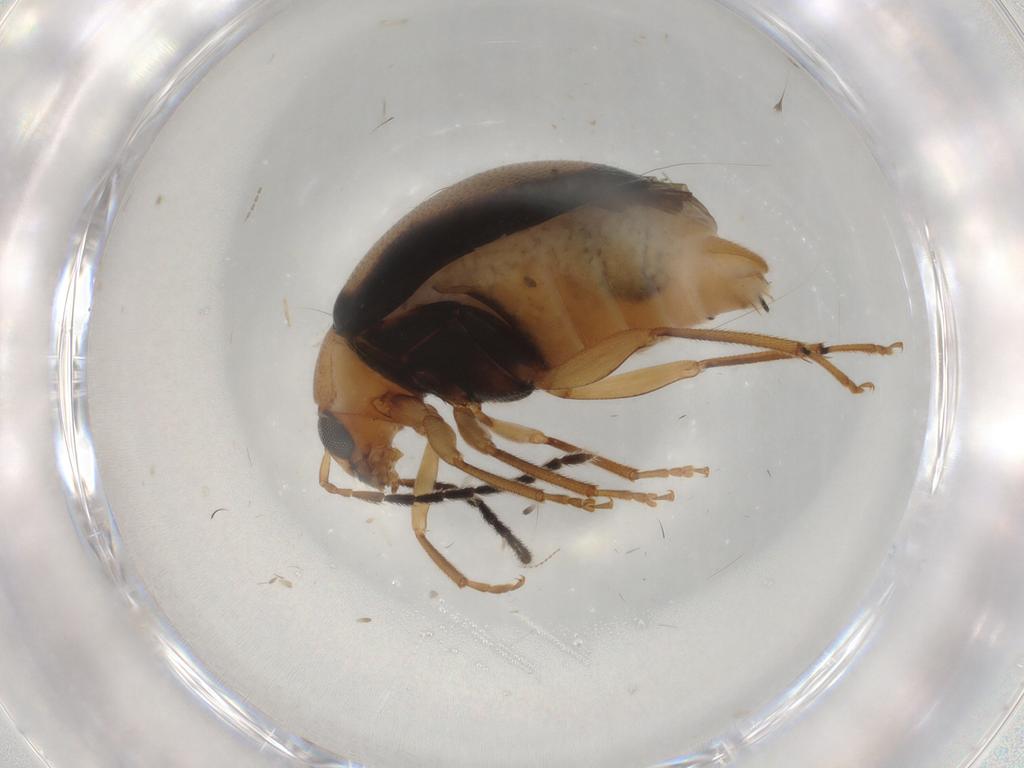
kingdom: Animalia
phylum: Arthropoda
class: Insecta
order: Coleoptera
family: Chrysomelidae
